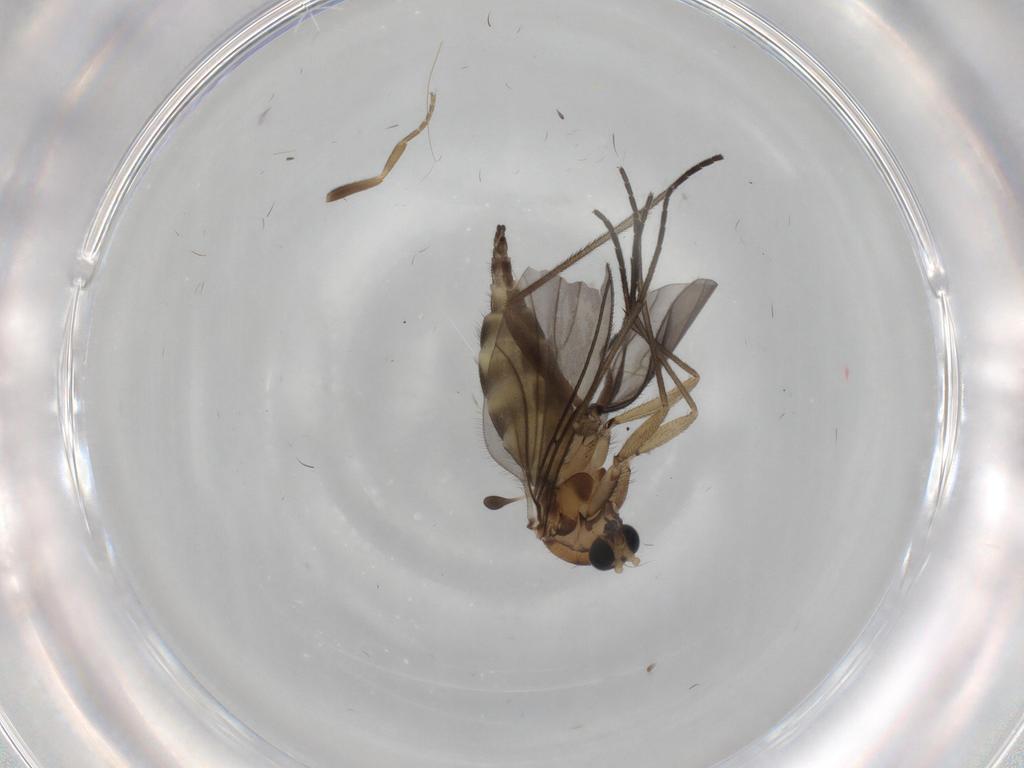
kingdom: Animalia
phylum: Arthropoda
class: Insecta
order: Diptera
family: Sciaridae
